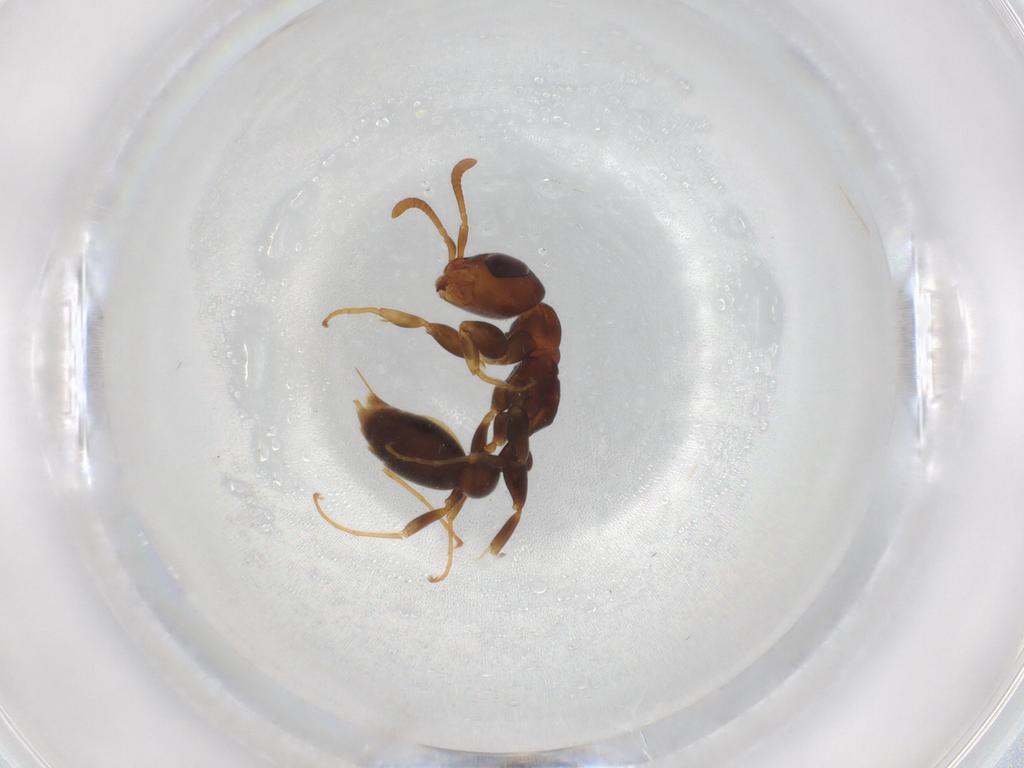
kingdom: Animalia
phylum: Arthropoda
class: Insecta
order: Hymenoptera
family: Formicidae
